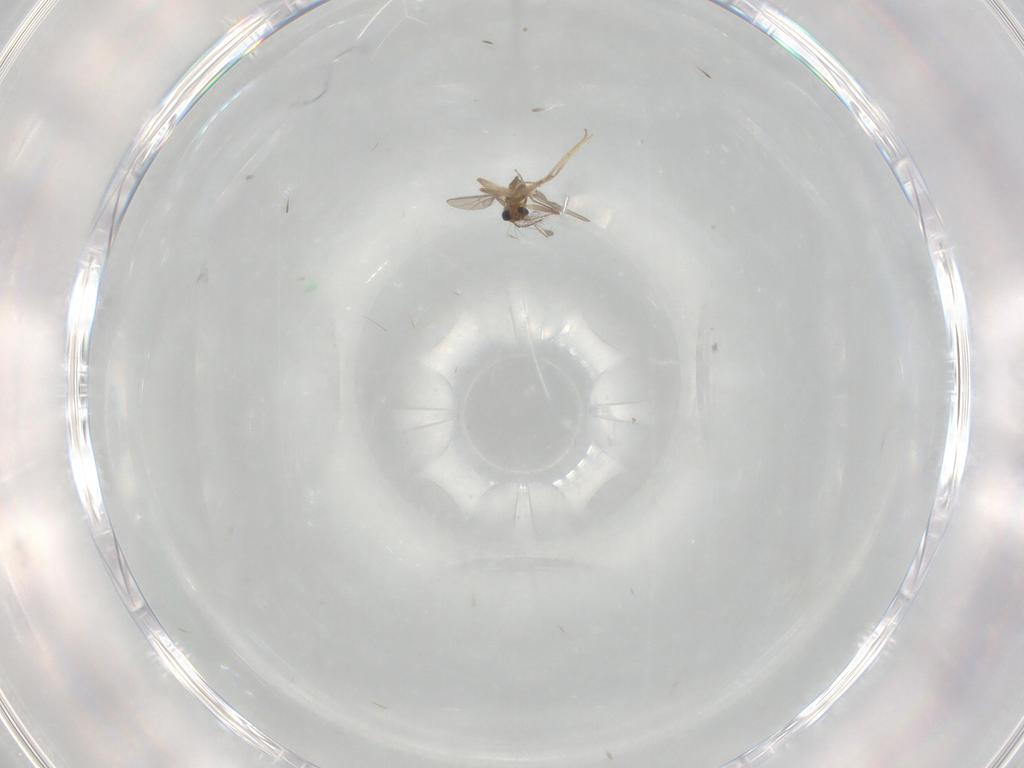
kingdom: Animalia
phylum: Arthropoda
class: Insecta
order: Diptera
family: Chironomidae
